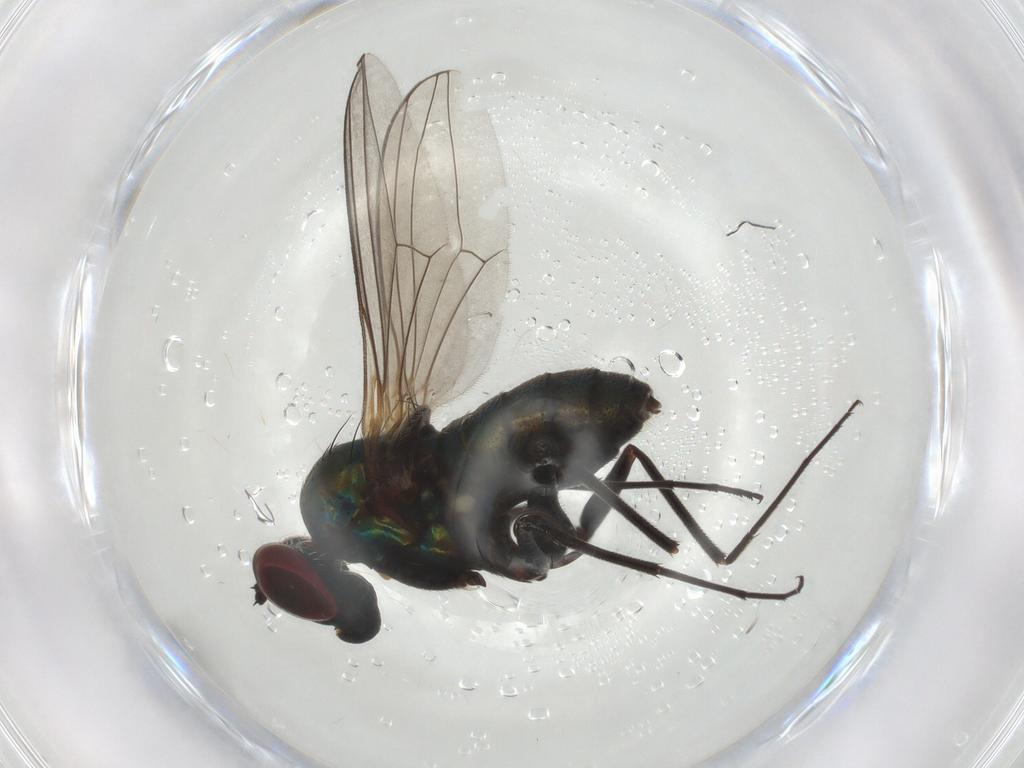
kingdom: Animalia
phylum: Arthropoda
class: Insecta
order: Diptera
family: Dolichopodidae
